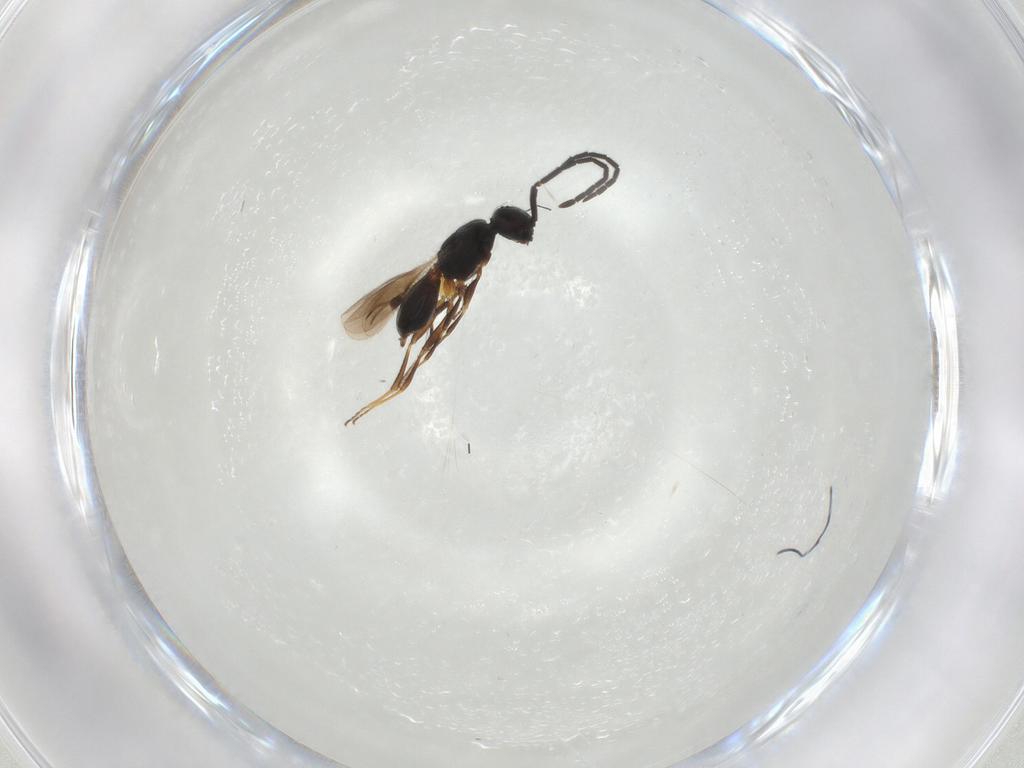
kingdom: Animalia
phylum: Arthropoda
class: Insecta
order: Hymenoptera
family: Megaspilidae
